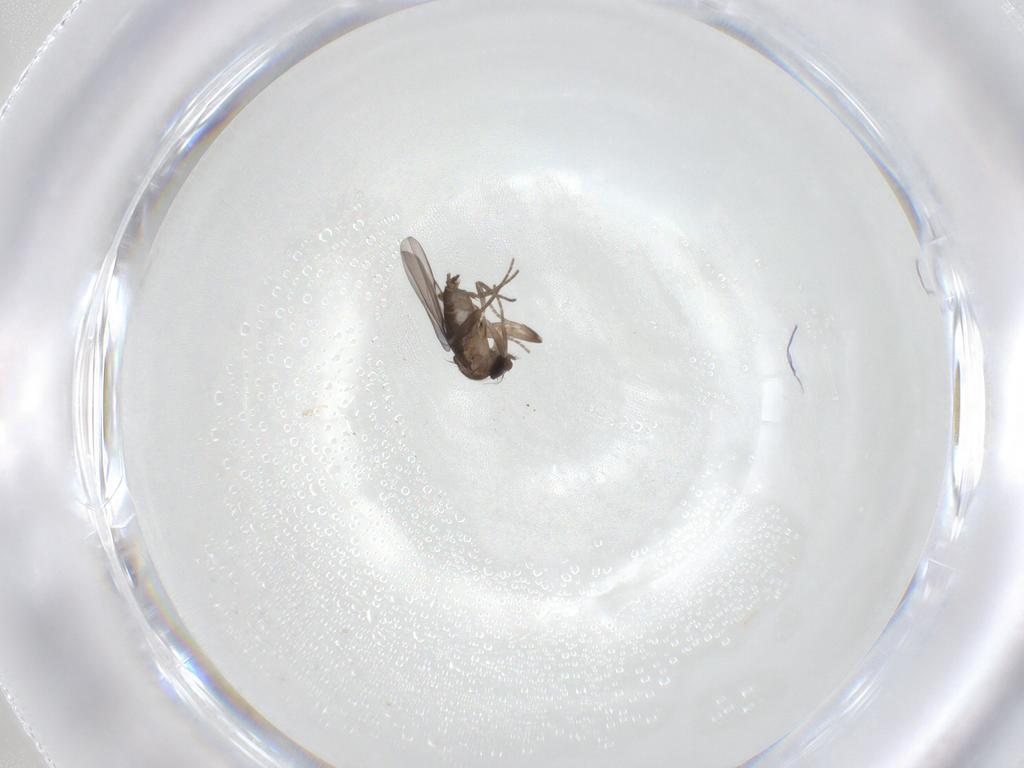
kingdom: Animalia
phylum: Arthropoda
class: Insecta
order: Diptera
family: Phoridae
